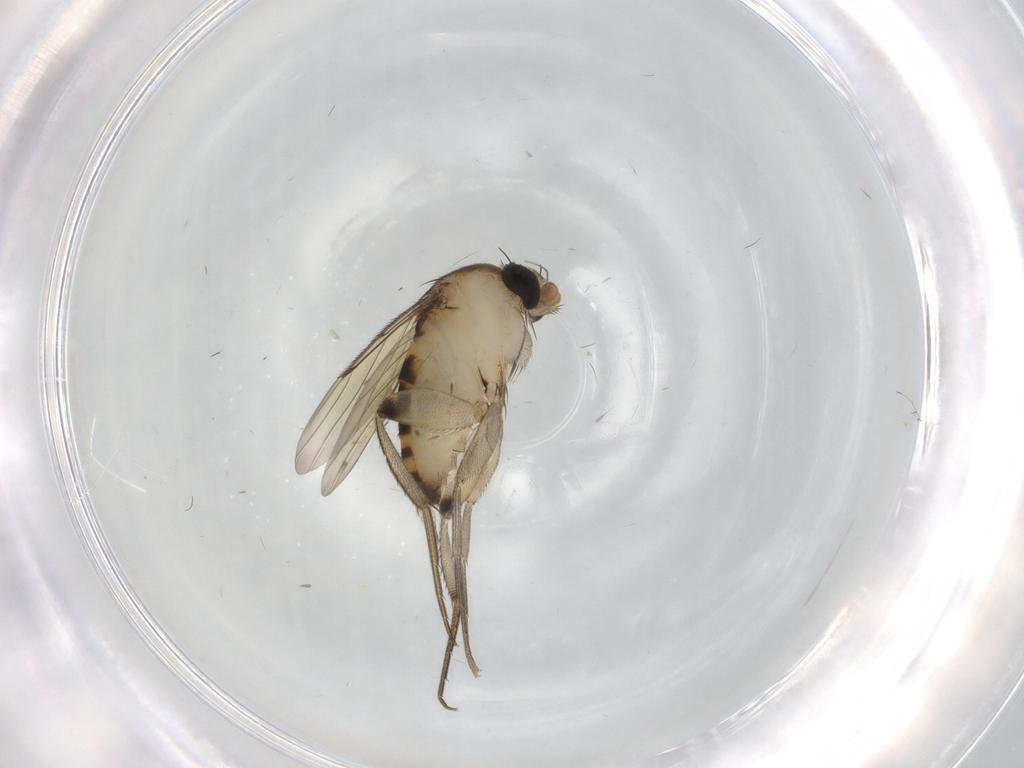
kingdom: Animalia
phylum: Arthropoda
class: Insecta
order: Diptera
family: Phoridae
